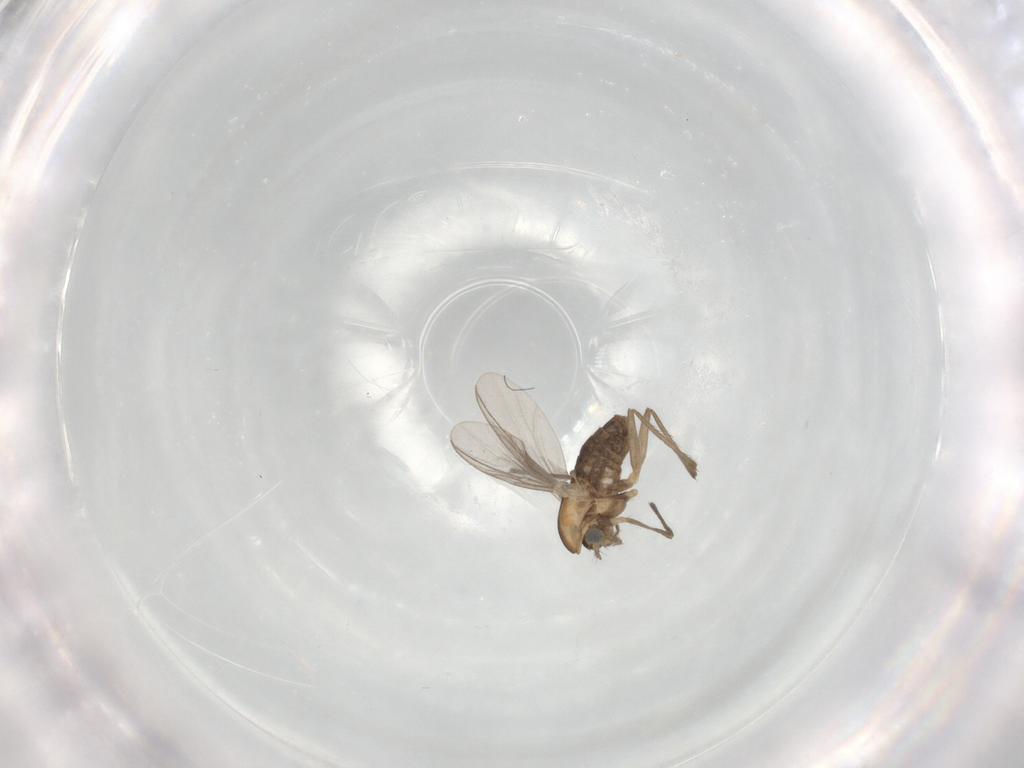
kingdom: Animalia
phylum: Arthropoda
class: Insecta
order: Diptera
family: Chironomidae
